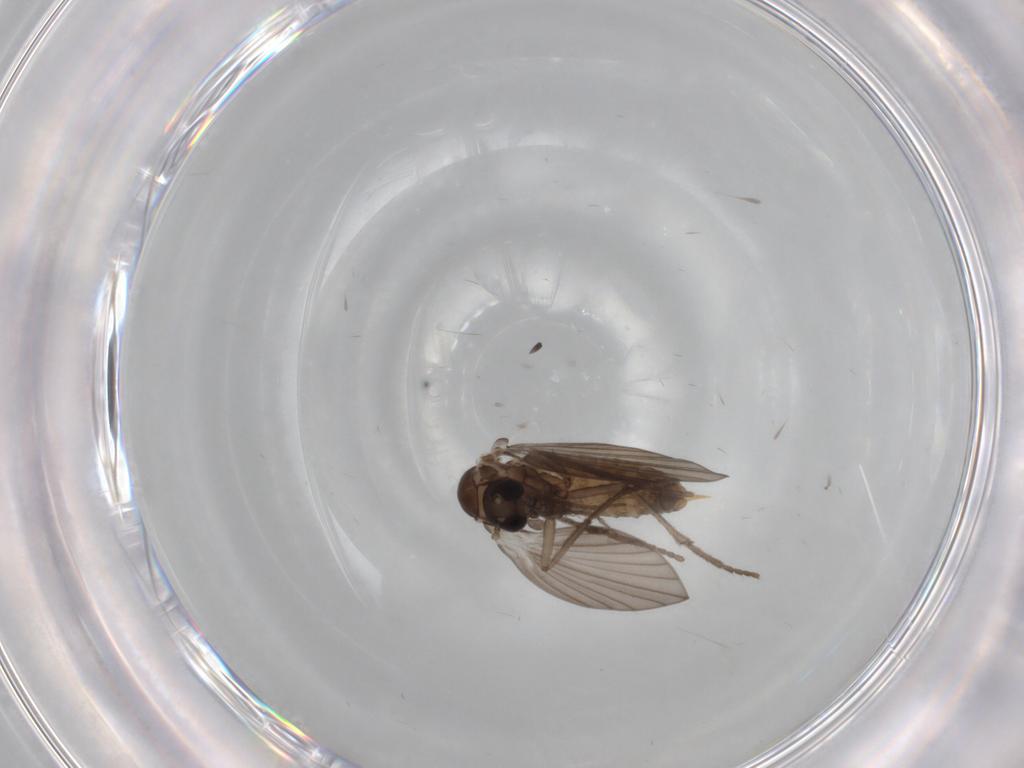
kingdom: Animalia
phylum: Arthropoda
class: Insecta
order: Diptera
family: Psychodidae
